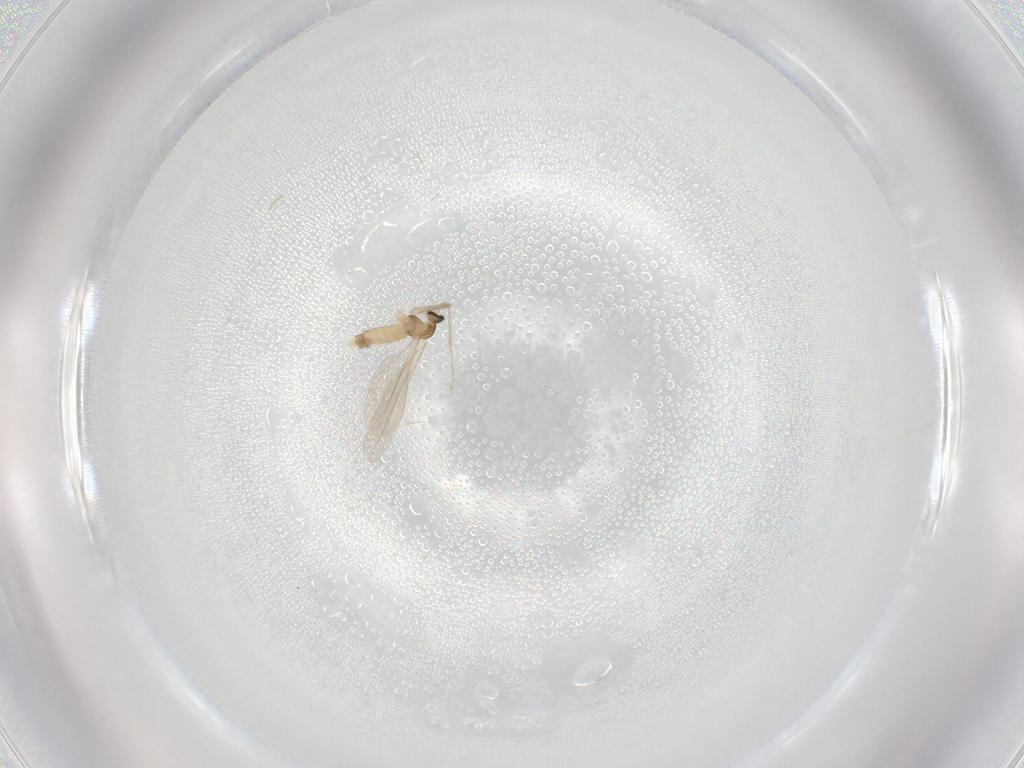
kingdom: Animalia
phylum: Arthropoda
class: Insecta
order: Diptera
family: Cecidomyiidae
